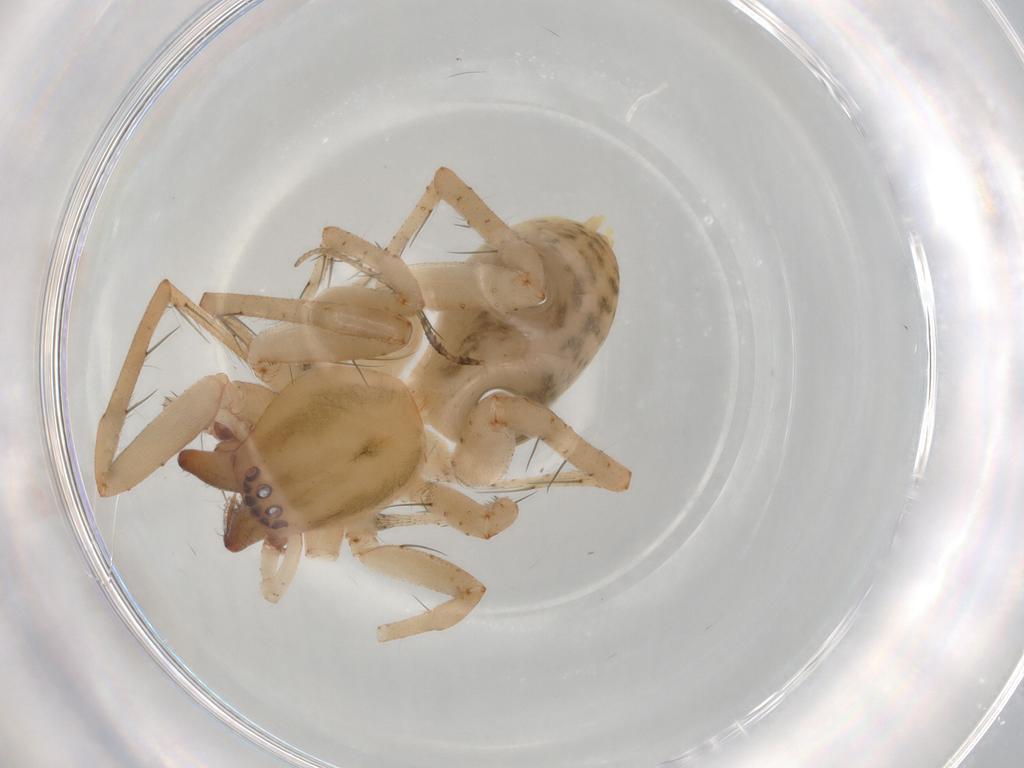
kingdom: Animalia
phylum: Arthropoda
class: Arachnida
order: Araneae
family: Anyphaenidae
